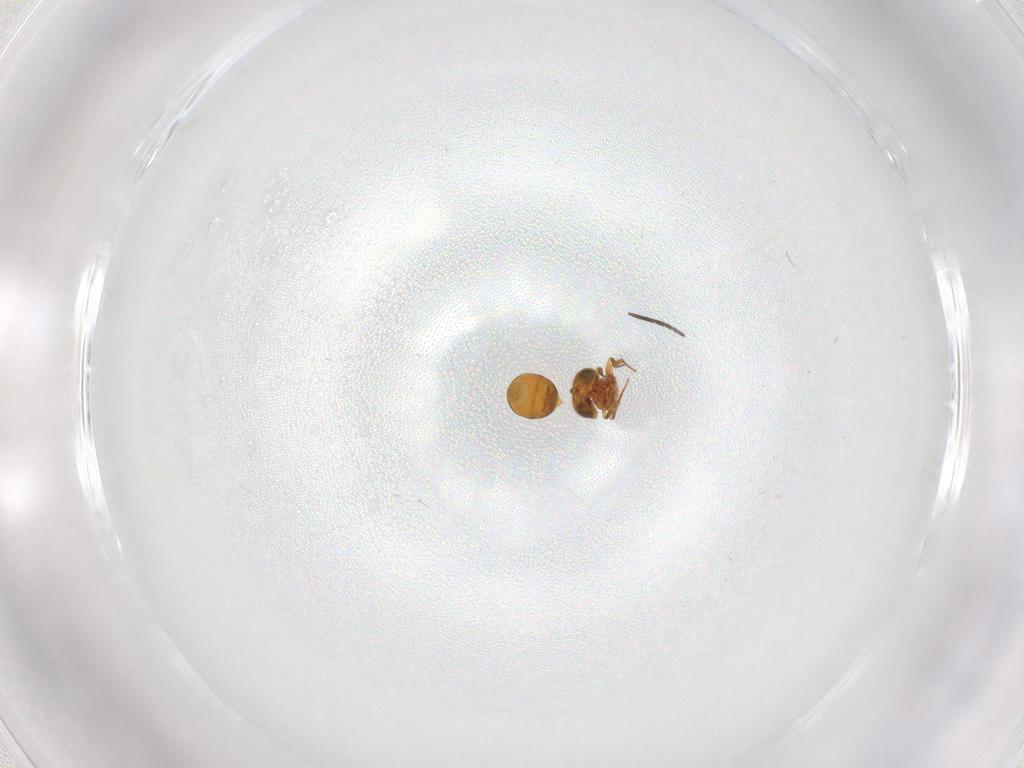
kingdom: Animalia
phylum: Arthropoda
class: Insecta
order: Hymenoptera
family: Scelionidae
